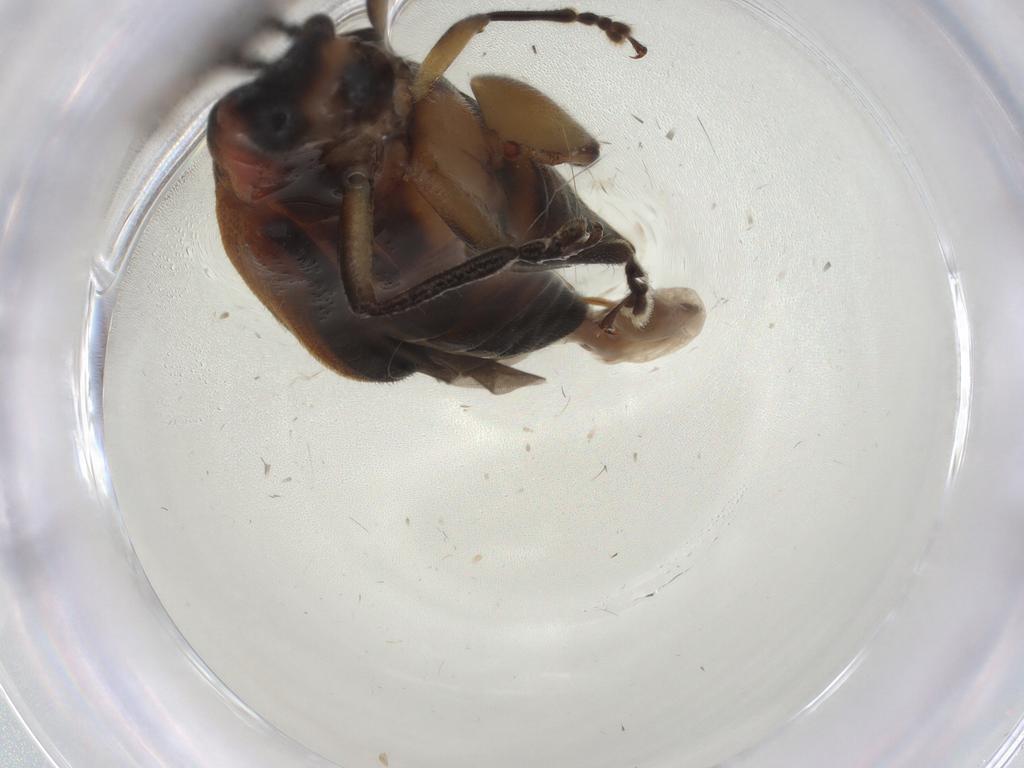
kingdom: Animalia
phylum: Arthropoda
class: Insecta
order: Coleoptera
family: Chrysomelidae
